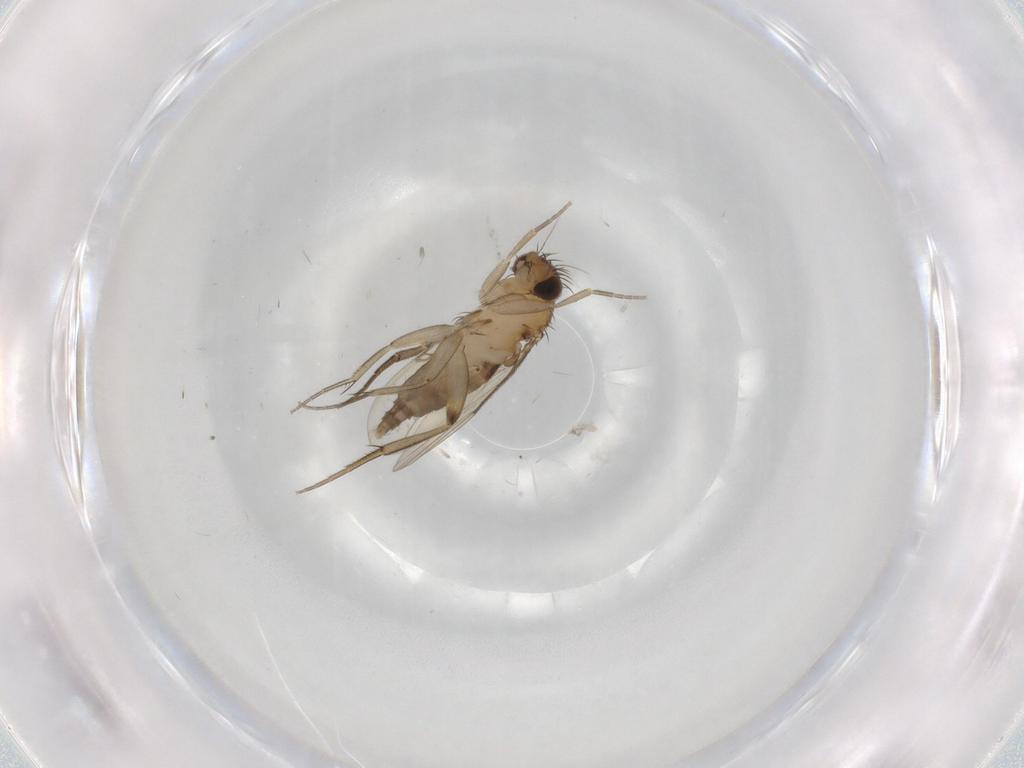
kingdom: Animalia
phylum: Arthropoda
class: Insecta
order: Diptera
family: Phoridae
